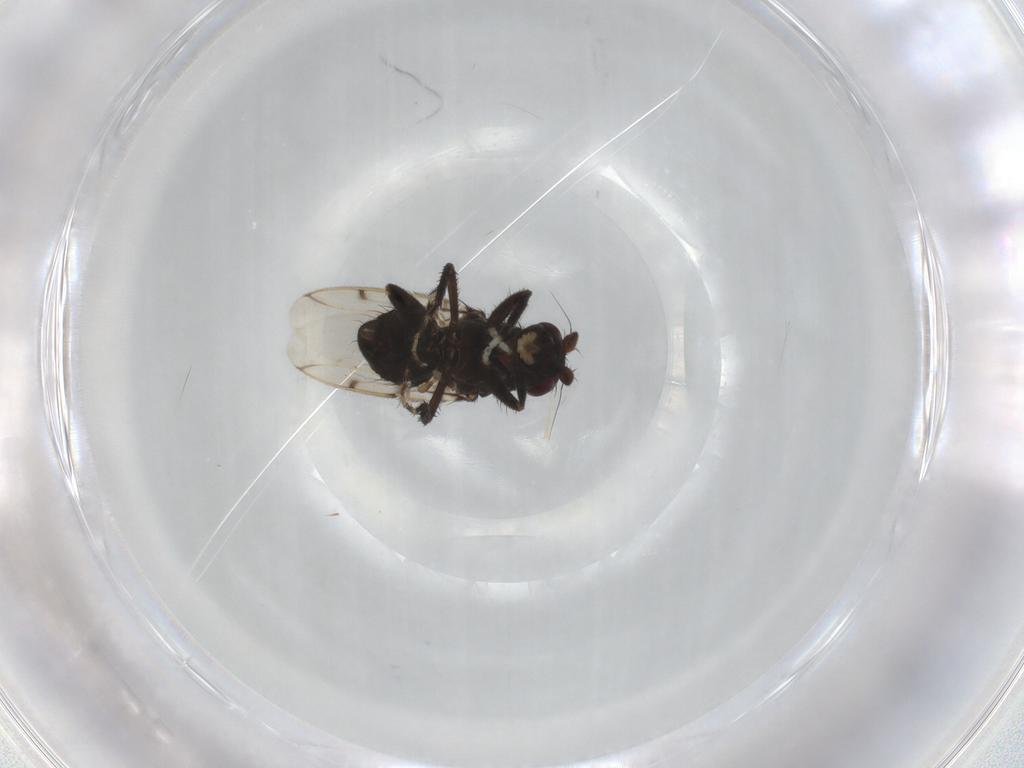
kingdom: Animalia
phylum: Arthropoda
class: Insecta
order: Diptera
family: Sphaeroceridae
